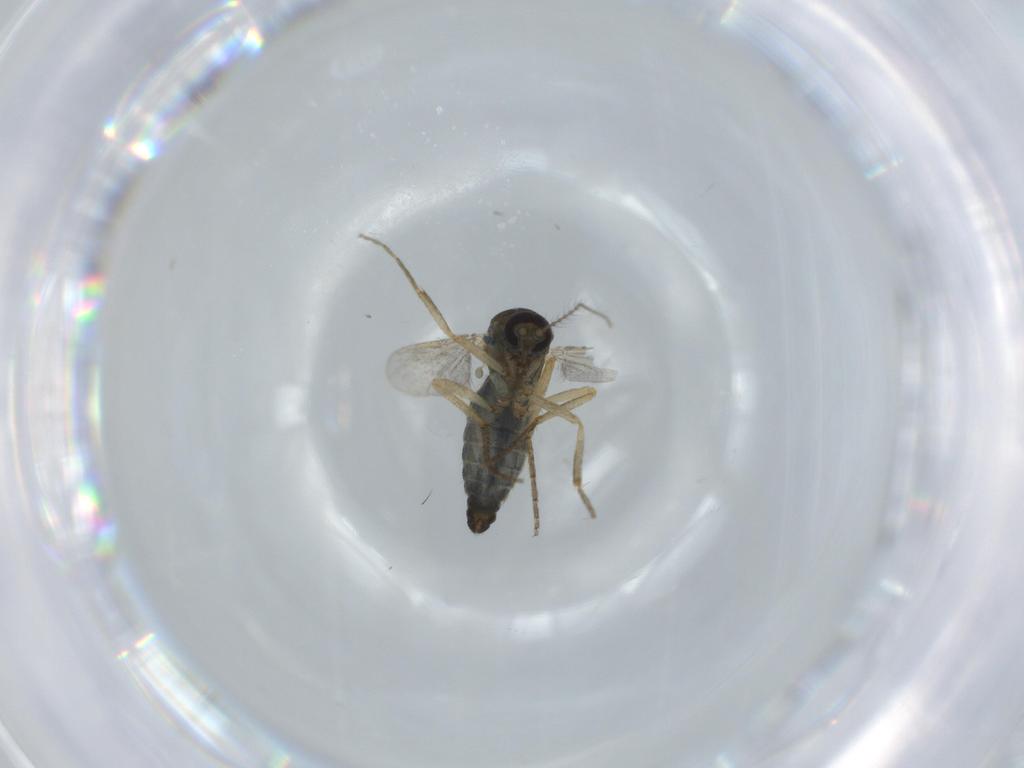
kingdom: Animalia
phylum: Arthropoda
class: Insecta
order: Diptera
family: Ceratopogonidae
